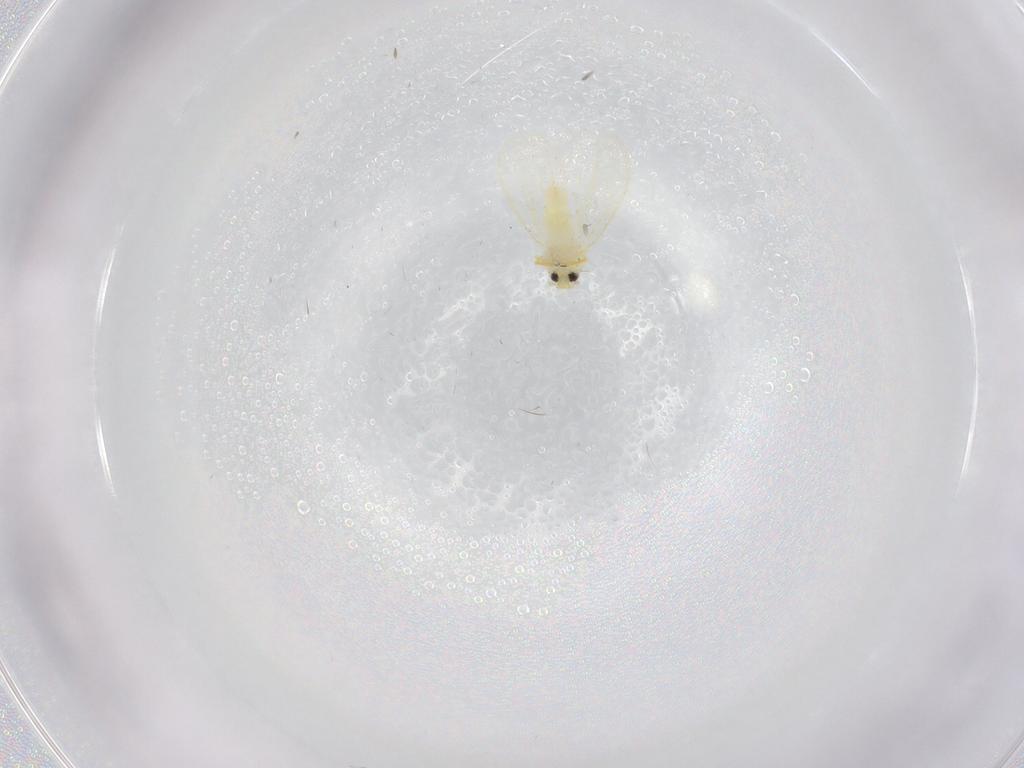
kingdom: Animalia
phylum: Arthropoda
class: Insecta
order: Hemiptera
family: Aleyrodidae
